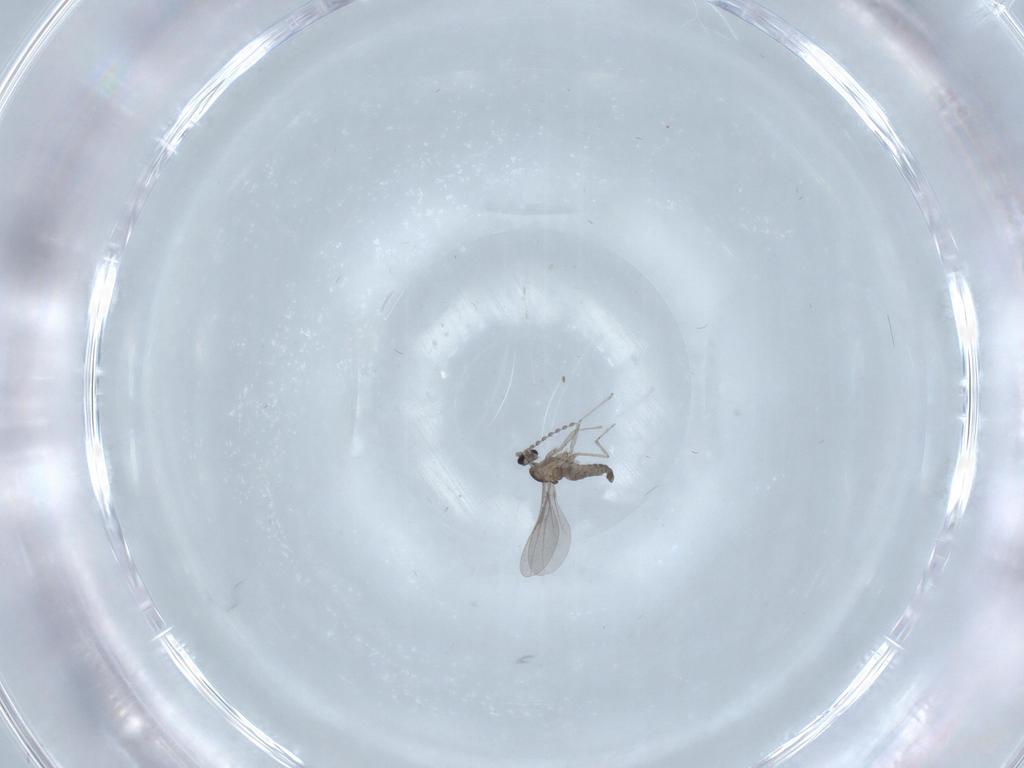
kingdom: Animalia
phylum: Arthropoda
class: Insecta
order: Diptera
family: Cecidomyiidae
